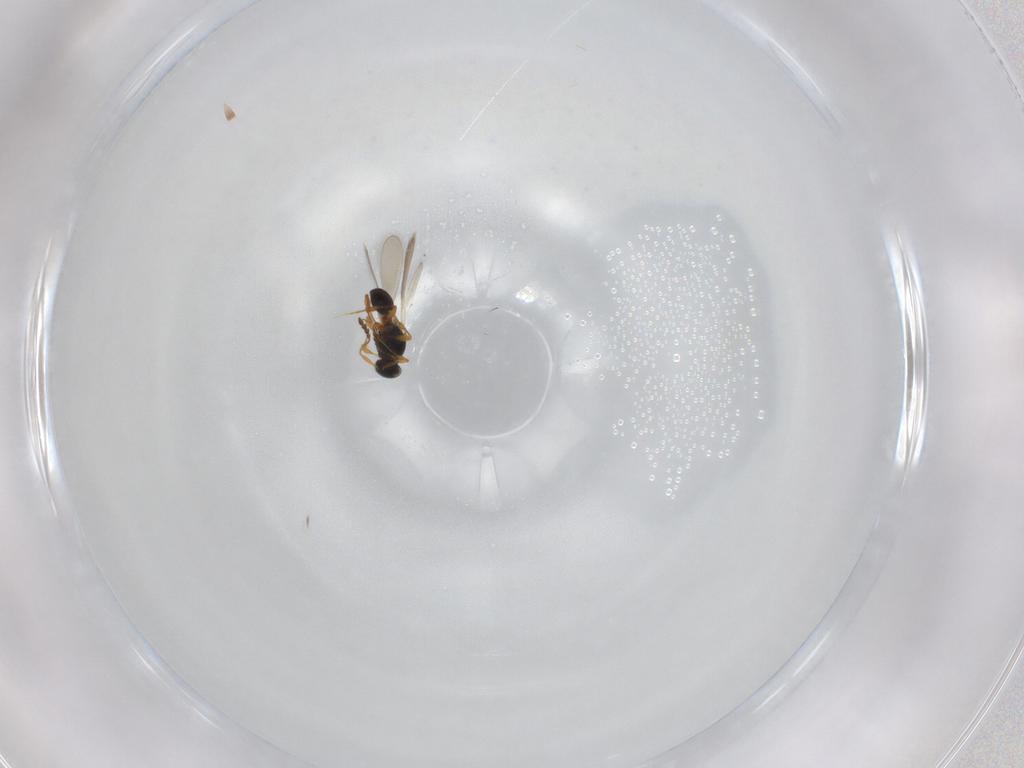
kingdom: Animalia
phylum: Arthropoda
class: Insecta
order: Hymenoptera
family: Platygastridae
